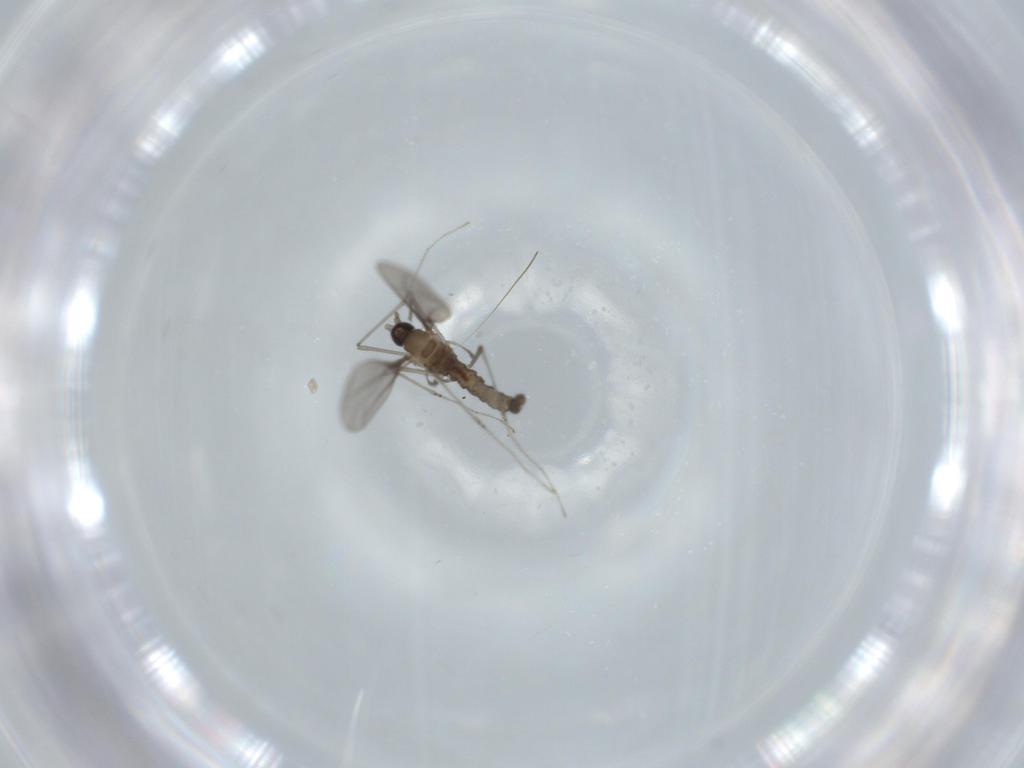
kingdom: Animalia
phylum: Arthropoda
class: Insecta
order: Diptera
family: Cecidomyiidae
